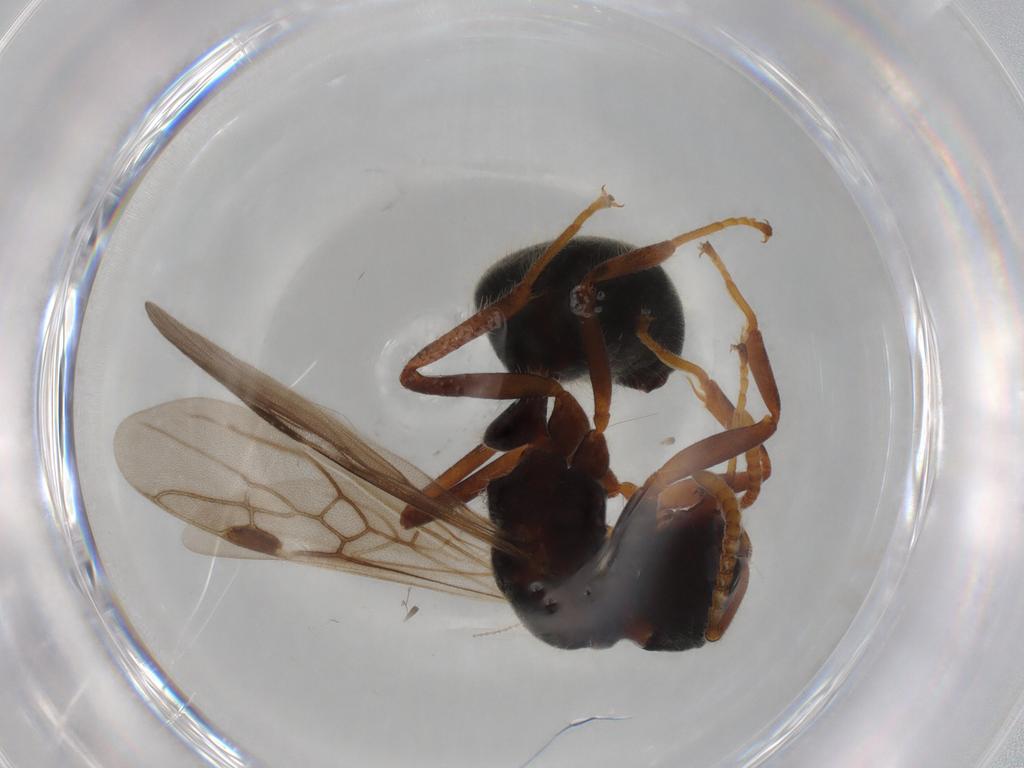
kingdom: Animalia
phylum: Arthropoda
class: Insecta
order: Hymenoptera
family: Formicidae
